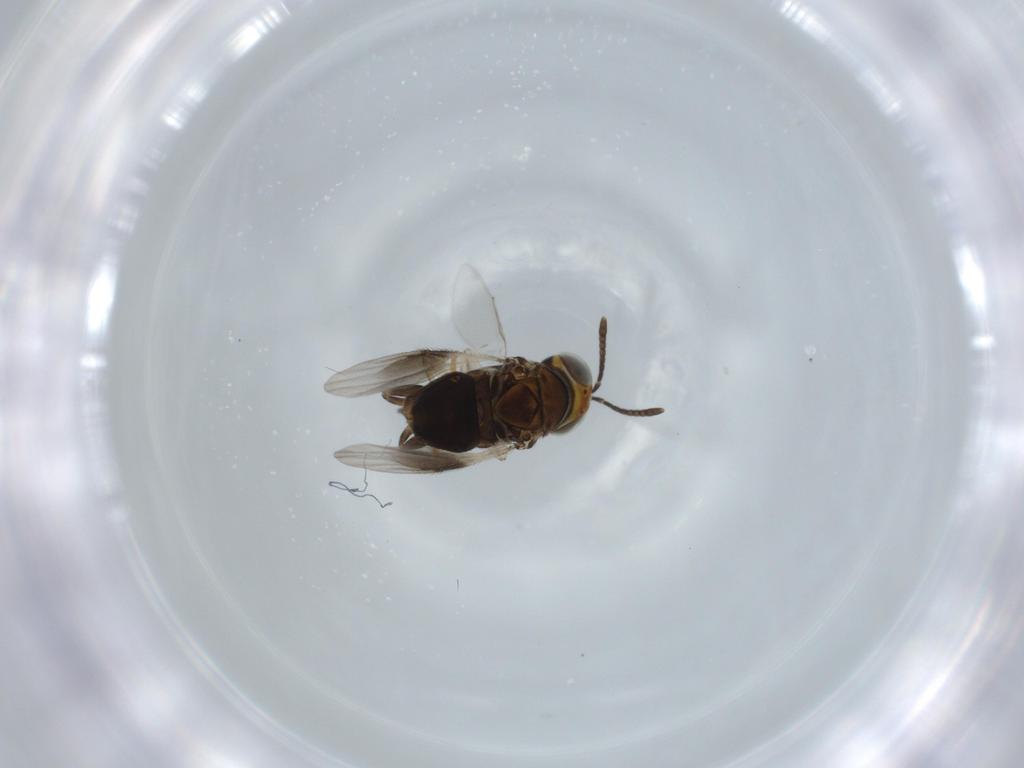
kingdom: Animalia
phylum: Arthropoda
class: Insecta
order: Hymenoptera
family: Mymaridae
